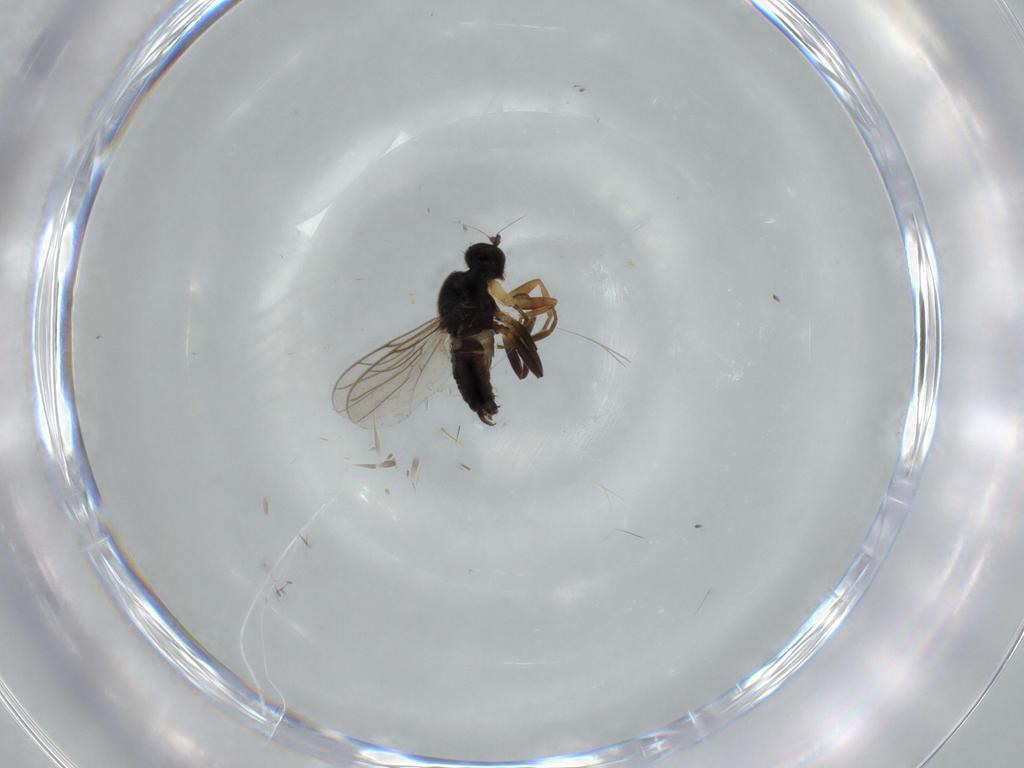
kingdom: Animalia
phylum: Arthropoda
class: Insecta
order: Diptera
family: Hybotidae
